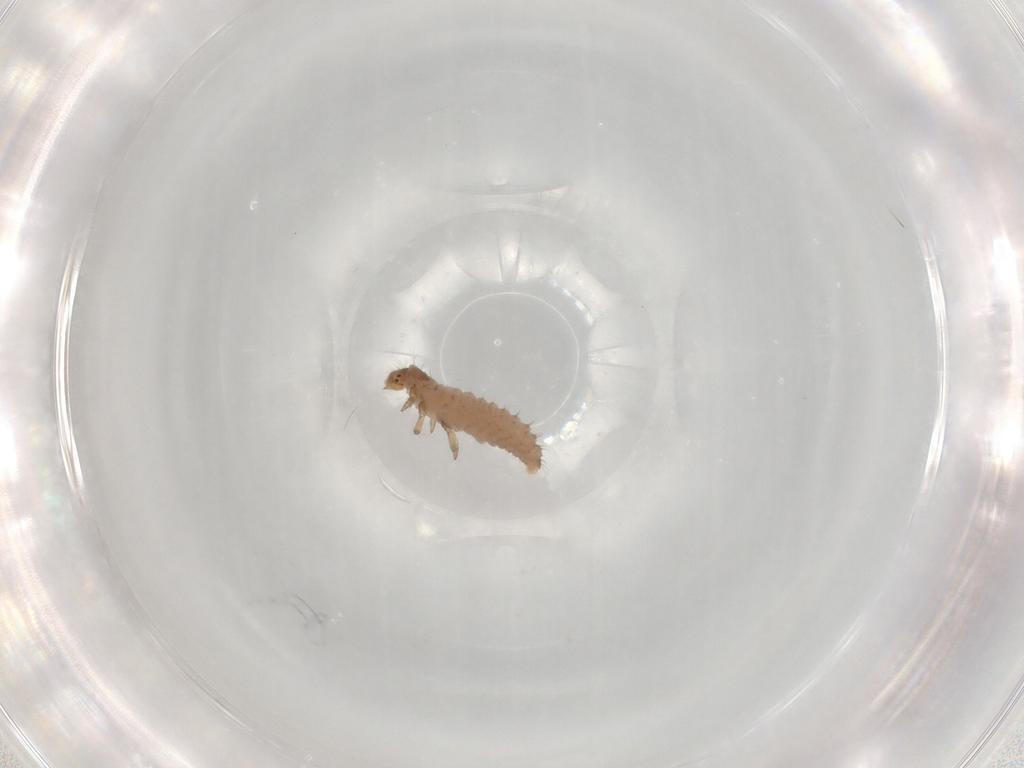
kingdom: Animalia
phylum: Arthropoda
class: Insecta
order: Coleoptera
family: Coccinellidae
